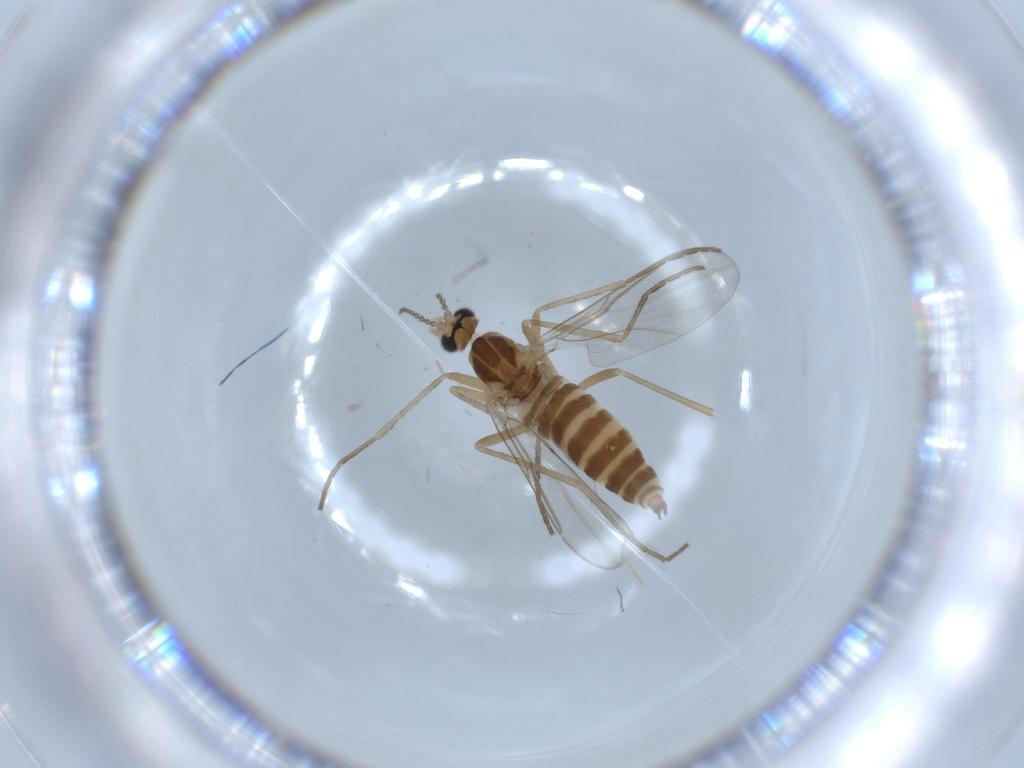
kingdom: Animalia
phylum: Arthropoda
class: Insecta
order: Diptera
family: Cecidomyiidae
